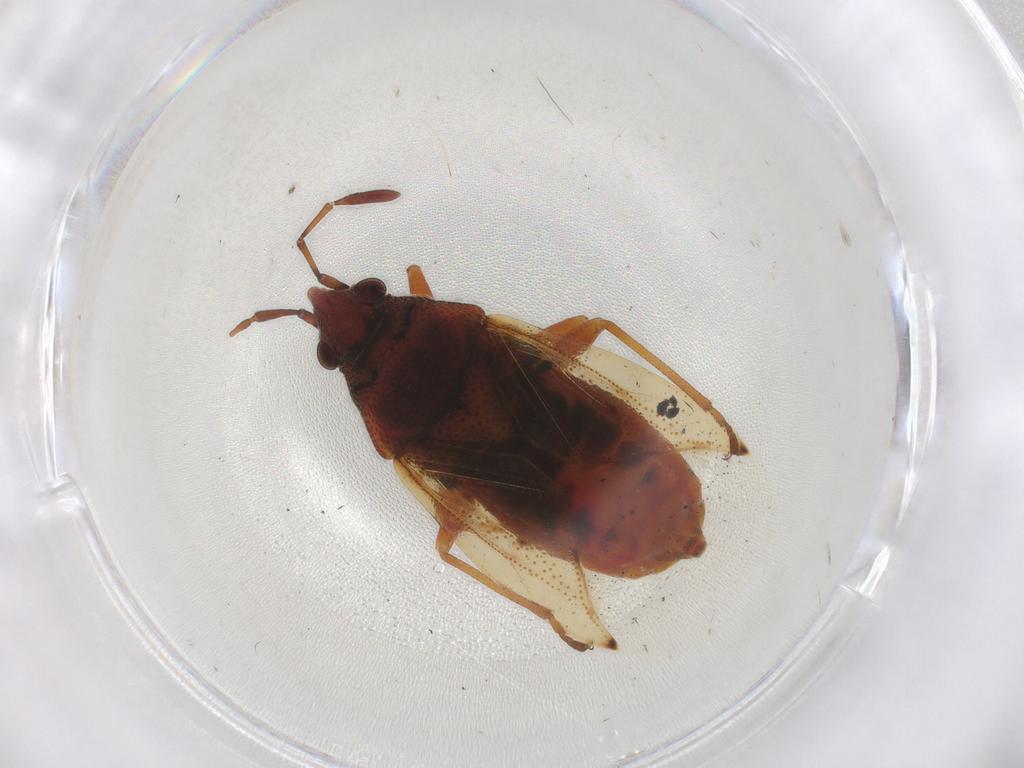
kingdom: Animalia
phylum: Arthropoda
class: Insecta
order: Hemiptera
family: Lygaeidae
